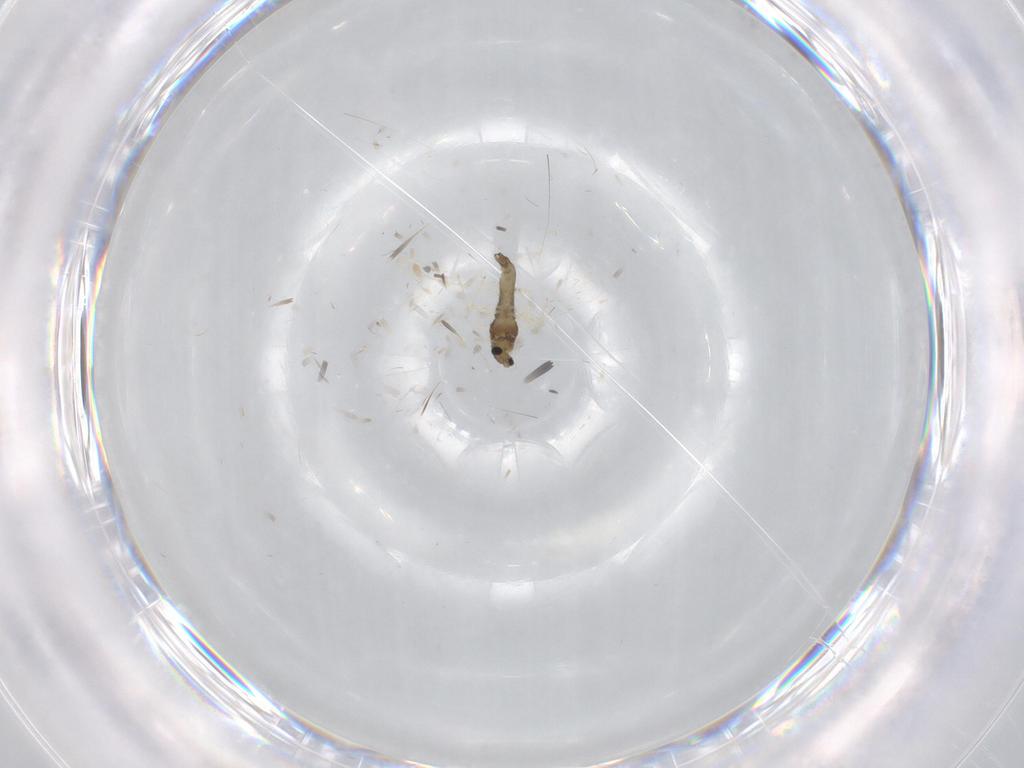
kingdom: Animalia
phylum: Arthropoda
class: Insecta
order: Diptera
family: Chironomidae
